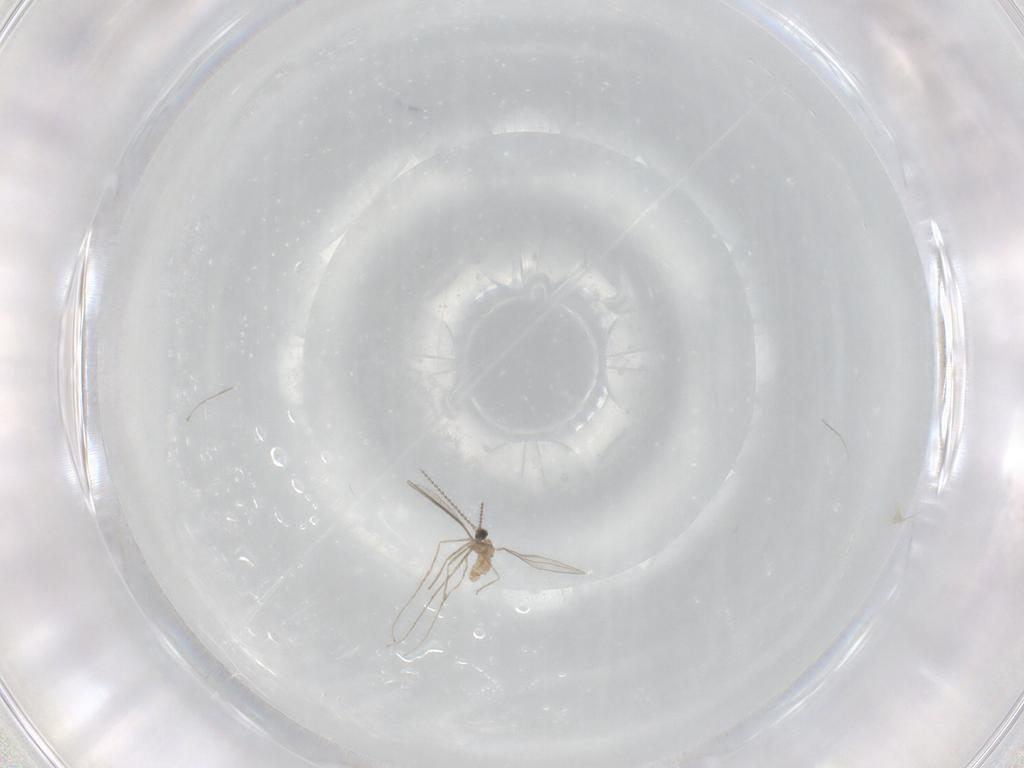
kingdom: Animalia
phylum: Arthropoda
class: Insecta
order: Diptera
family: Cecidomyiidae
